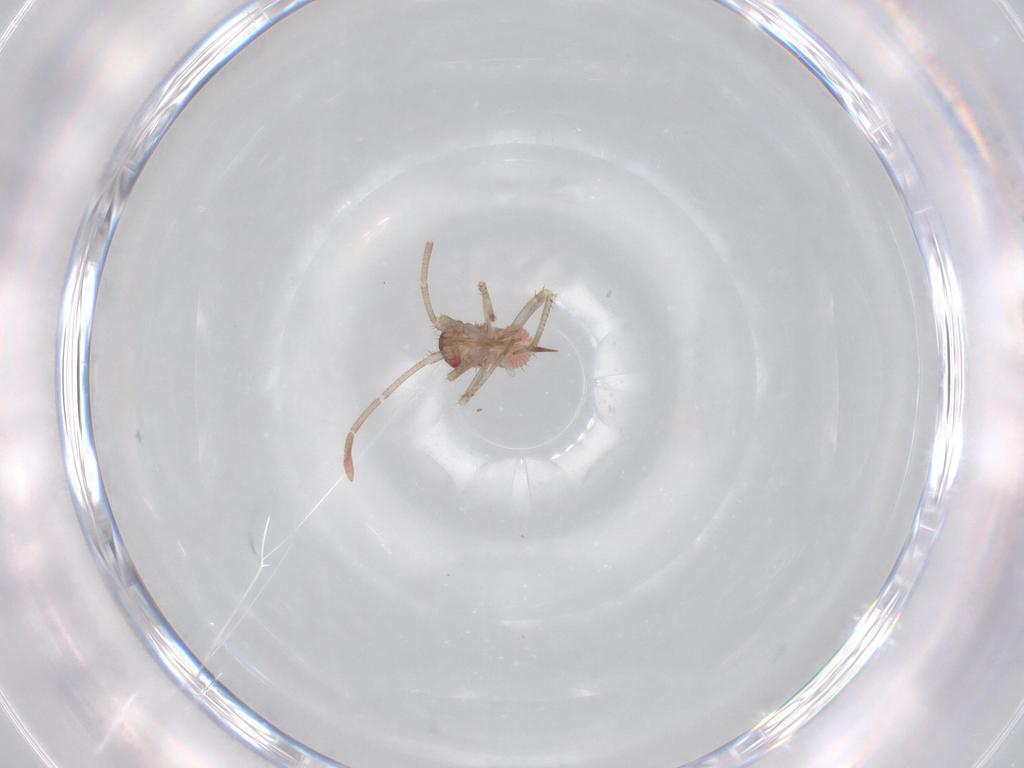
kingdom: Animalia
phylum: Arthropoda
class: Insecta
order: Hemiptera
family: Miridae
